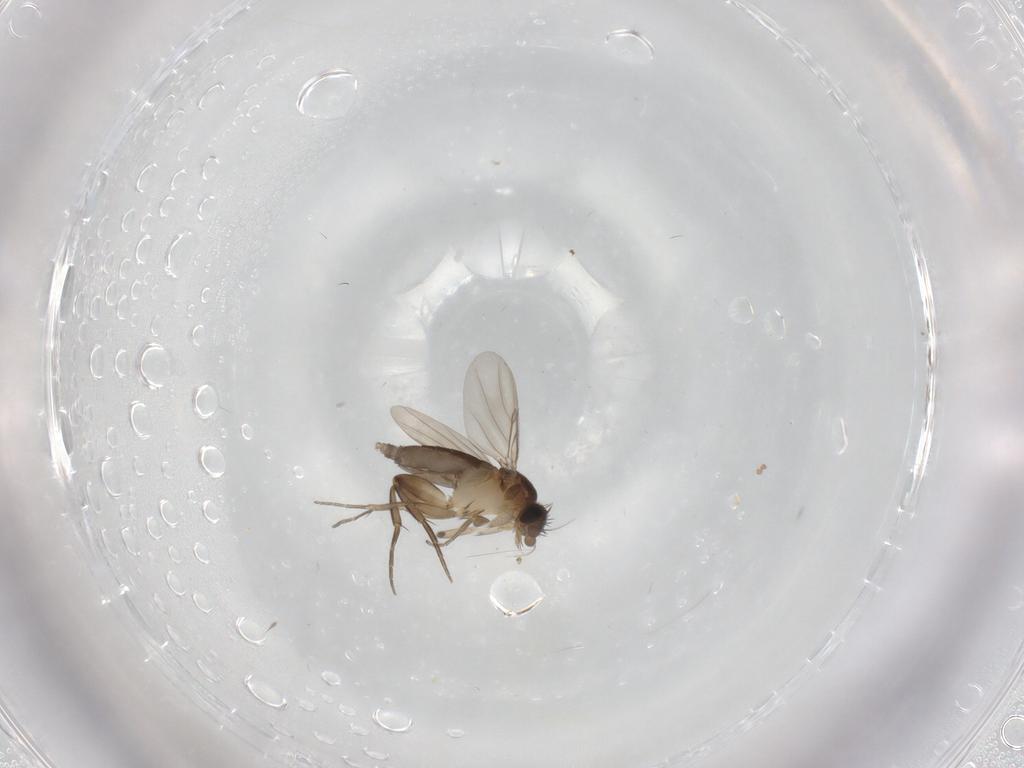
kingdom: Animalia
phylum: Arthropoda
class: Insecta
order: Diptera
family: Phoridae
